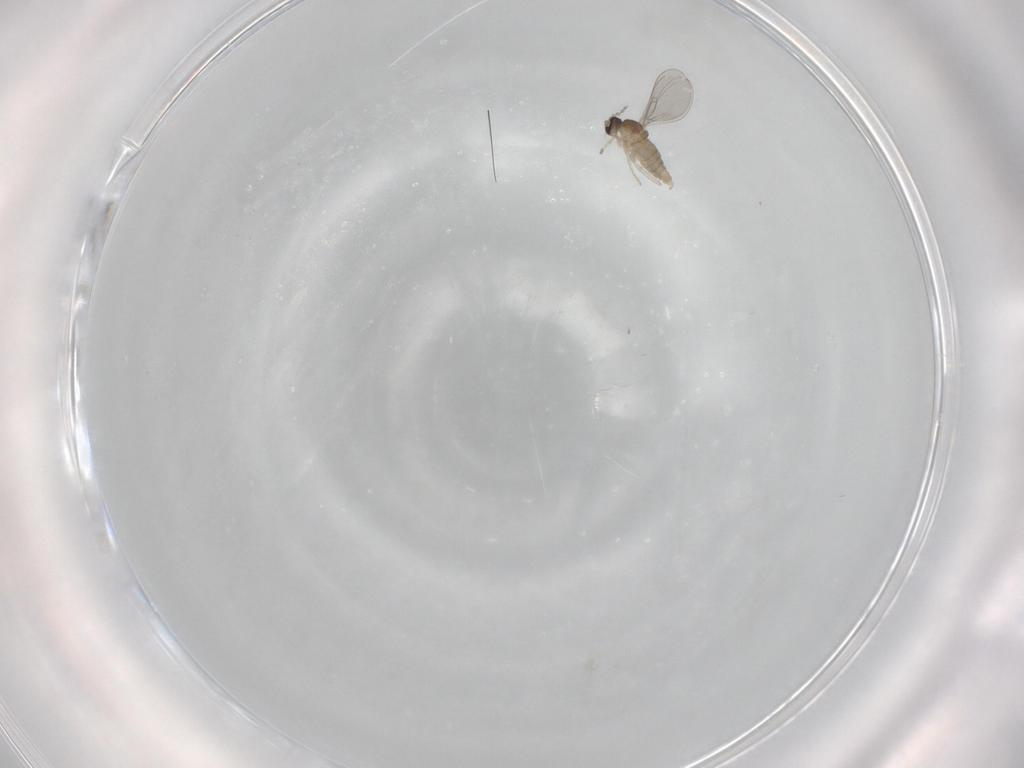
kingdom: Animalia
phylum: Arthropoda
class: Insecta
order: Diptera
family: Cecidomyiidae
